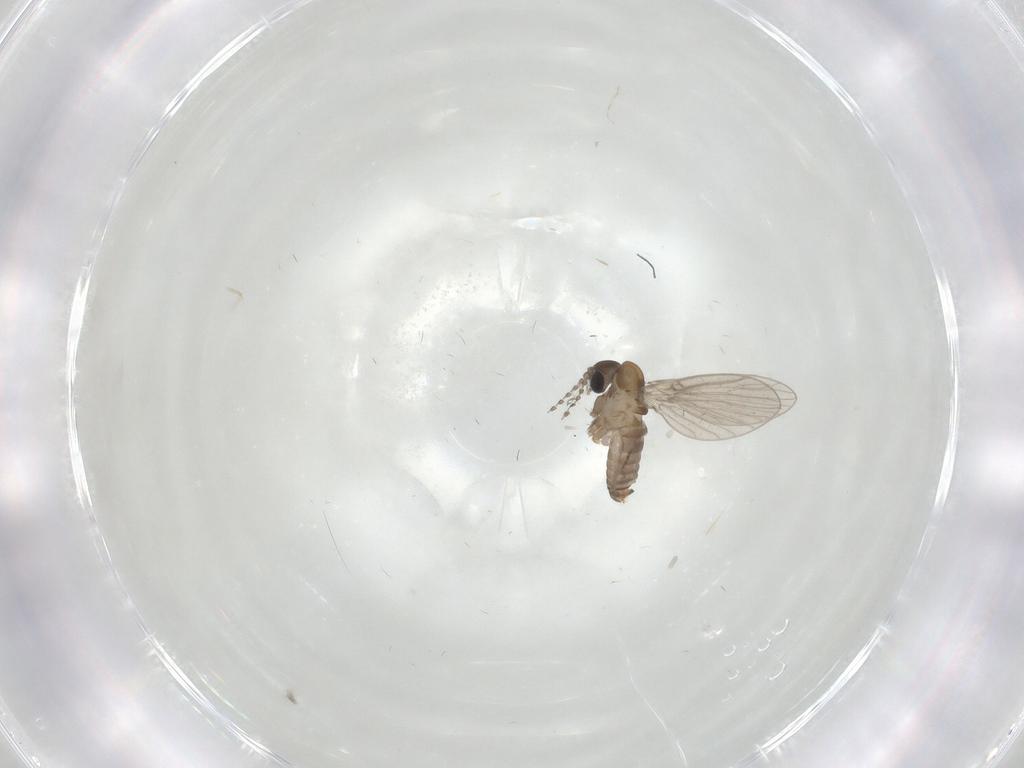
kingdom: Animalia
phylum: Arthropoda
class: Insecta
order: Diptera
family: Psychodidae
